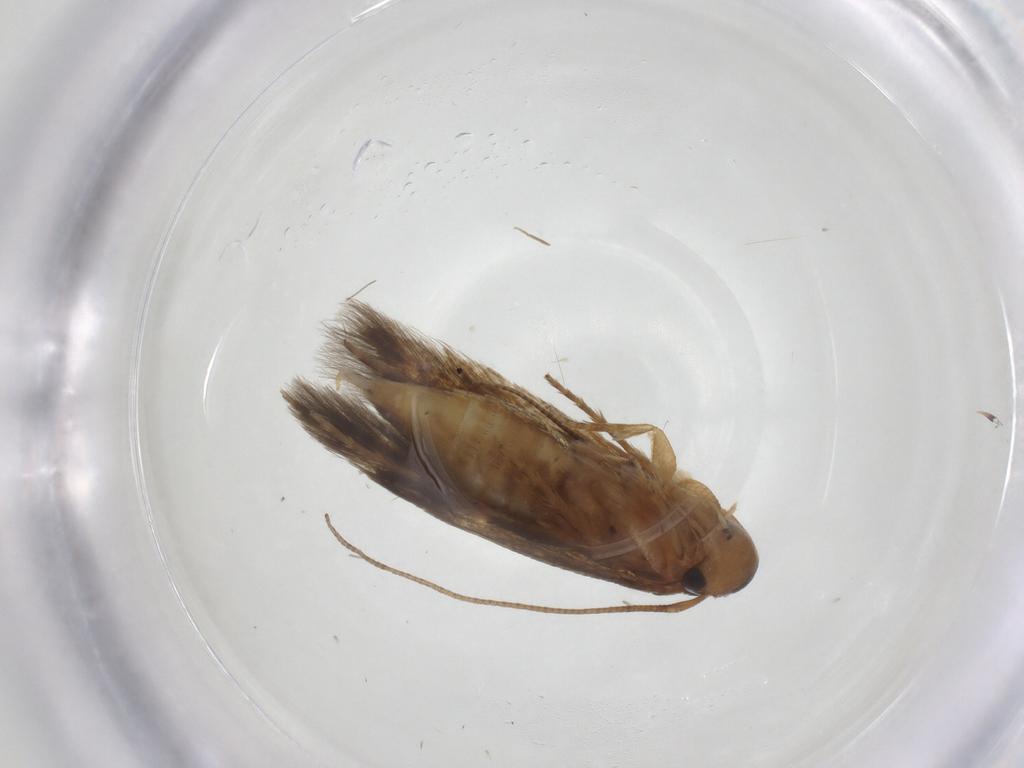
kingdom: Animalia
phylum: Arthropoda
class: Insecta
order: Lepidoptera
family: Tineidae
